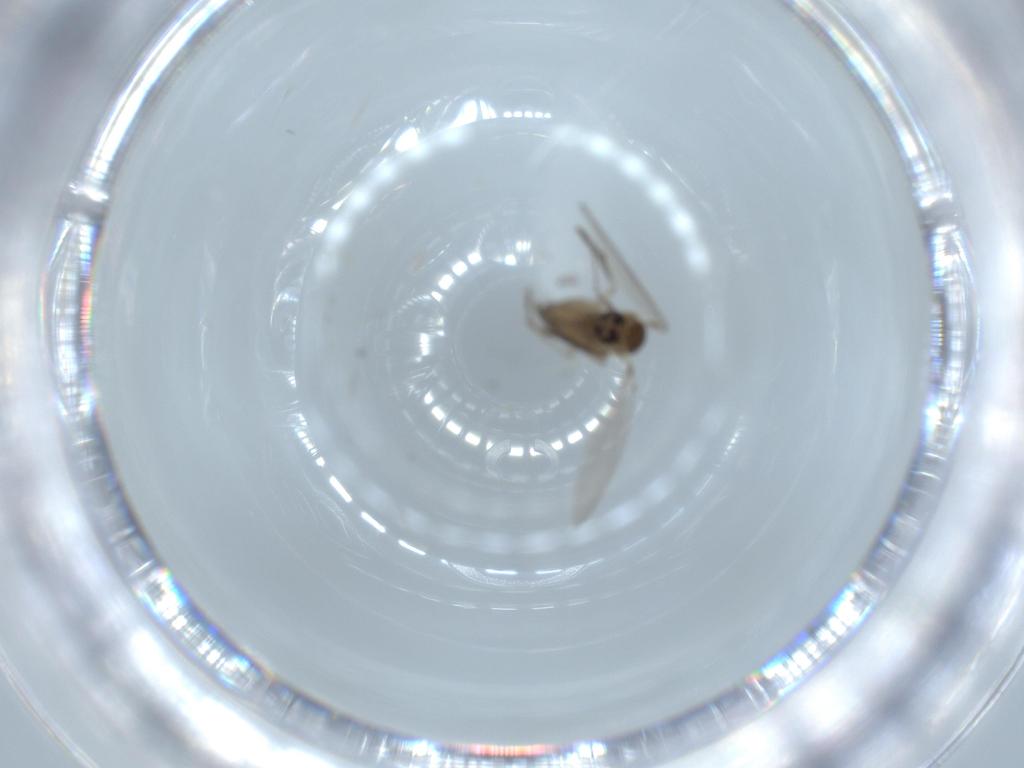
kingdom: Animalia
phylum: Arthropoda
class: Insecta
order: Diptera
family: Psychodidae
